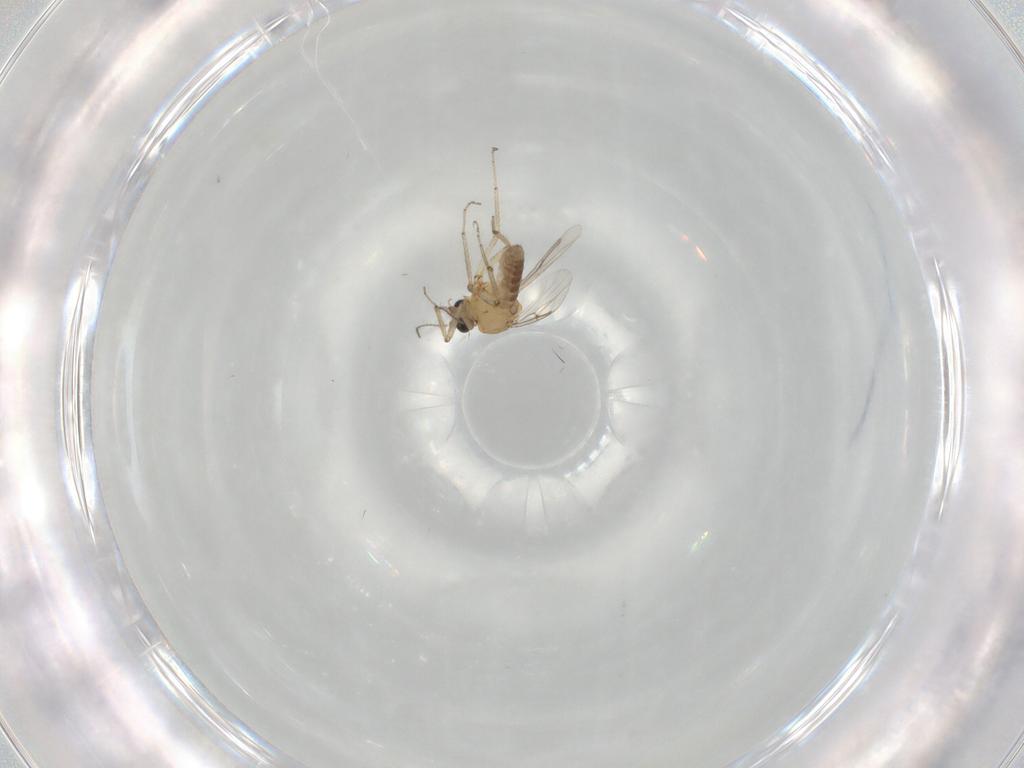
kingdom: Animalia
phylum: Arthropoda
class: Insecta
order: Diptera
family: Ceratopogonidae
